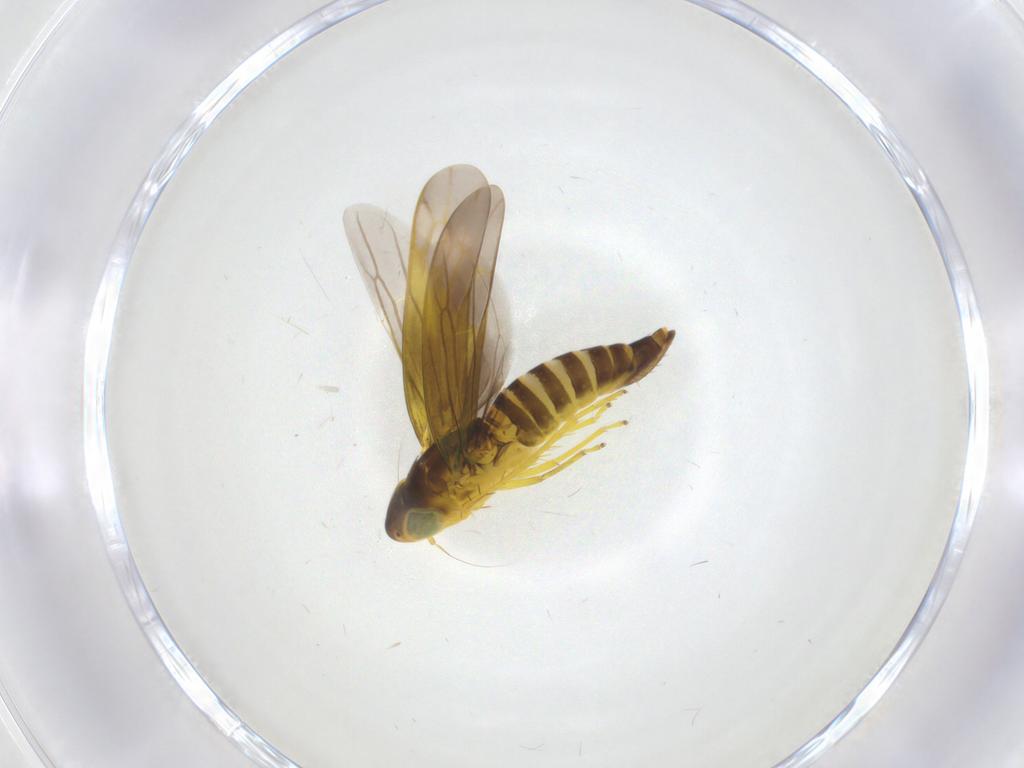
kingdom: Animalia
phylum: Arthropoda
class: Insecta
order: Hemiptera
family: Cicadellidae
